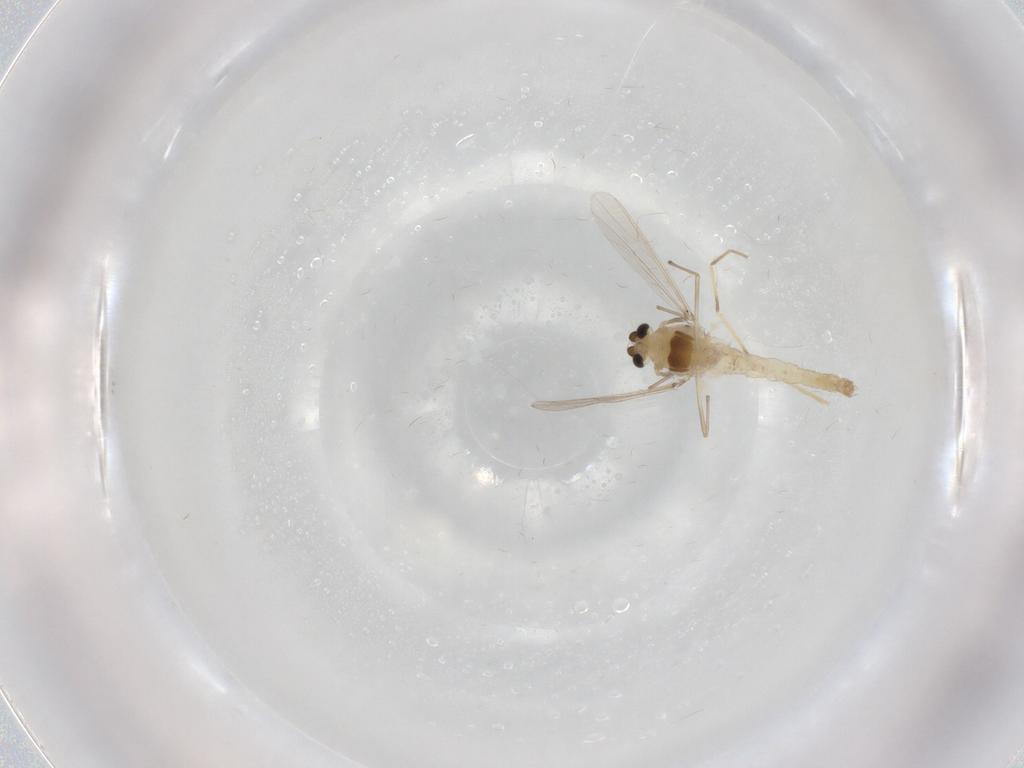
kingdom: Animalia
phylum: Arthropoda
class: Insecta
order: Diptera
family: Chironomidae
